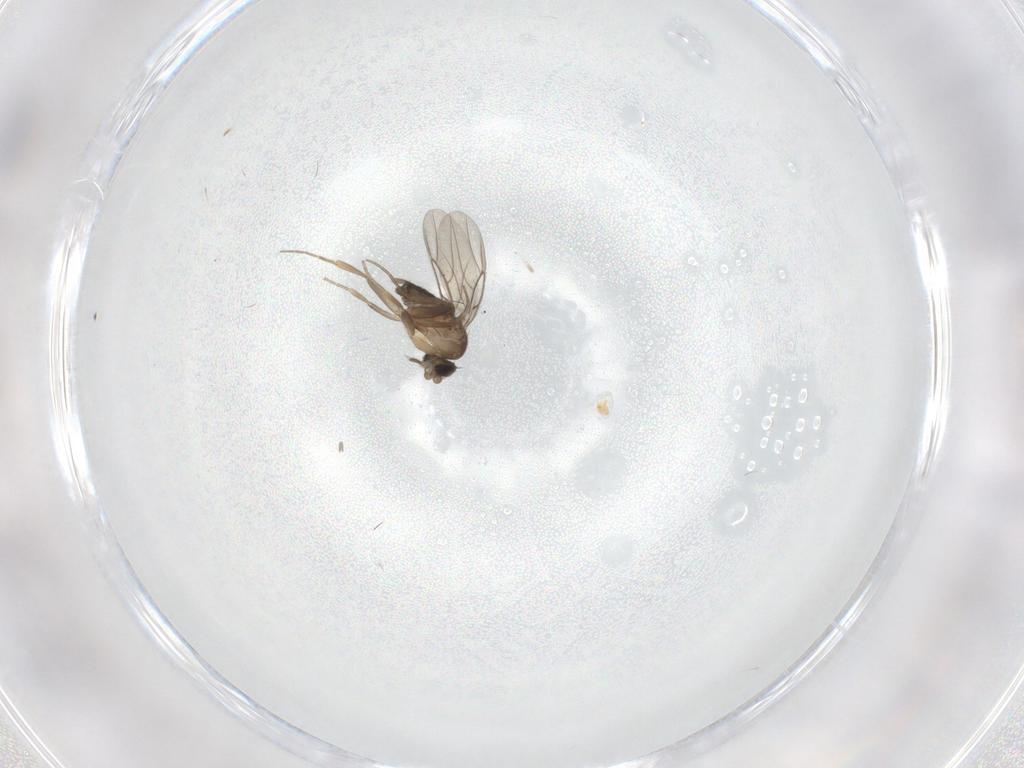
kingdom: Animalia
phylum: Arthropoda
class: Insecta
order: Diptera
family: Phoridae
